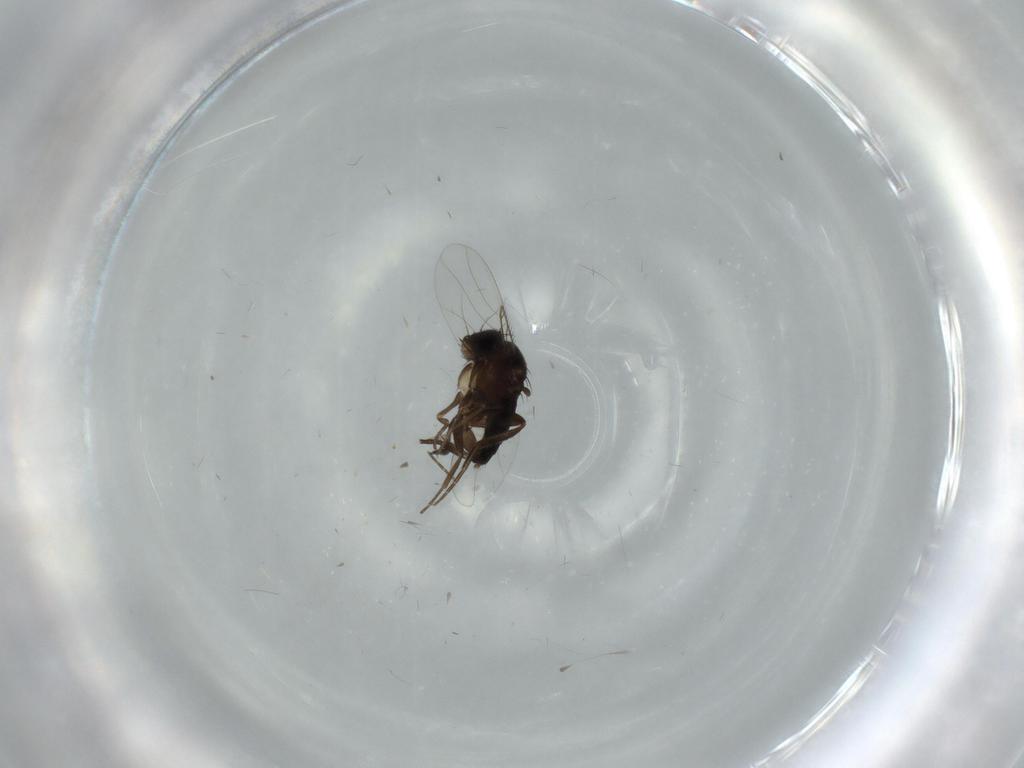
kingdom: Animalia
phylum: Arthropoda
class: Insecta
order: Diptera
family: Phoridae
